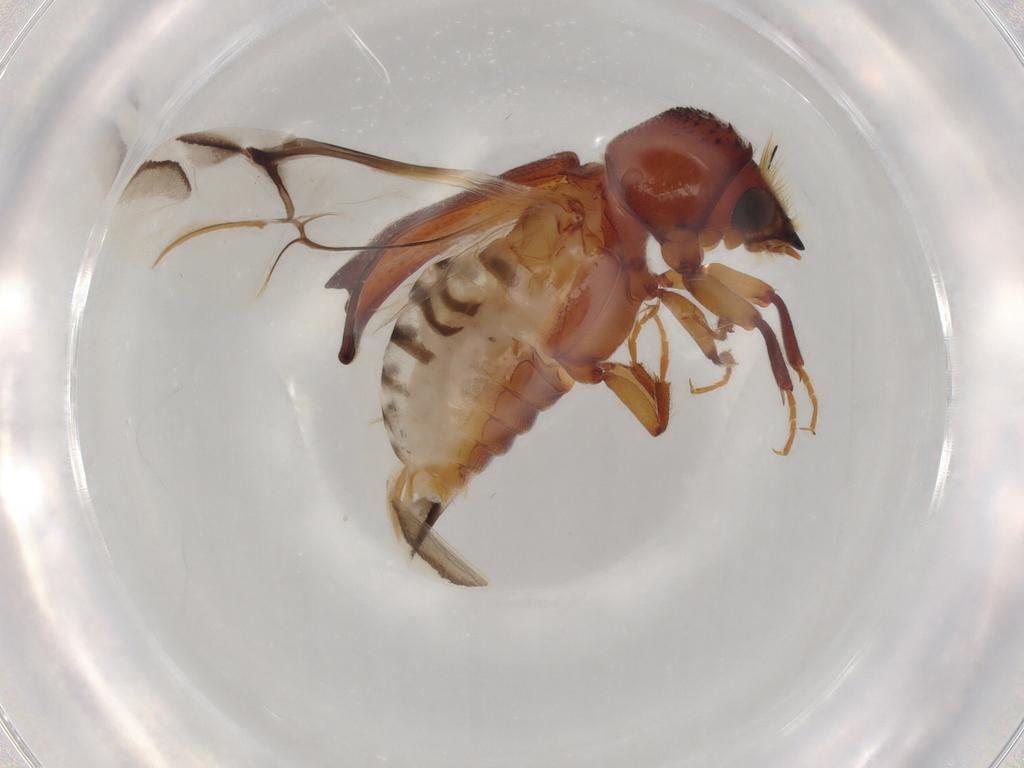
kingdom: Animalia
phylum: Arthropoda
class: Insecta
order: Coleoptera
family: Bostrichidae
